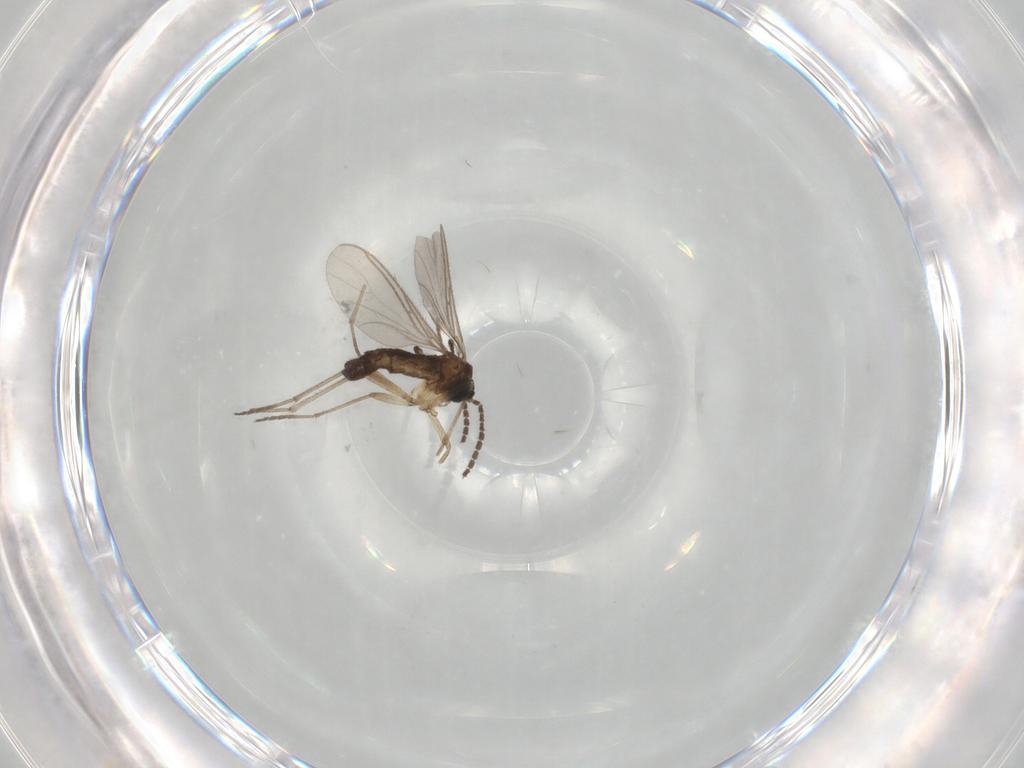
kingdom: Animalia
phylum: Arthropoda
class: Insecta
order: Diptera
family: Sciaridae
